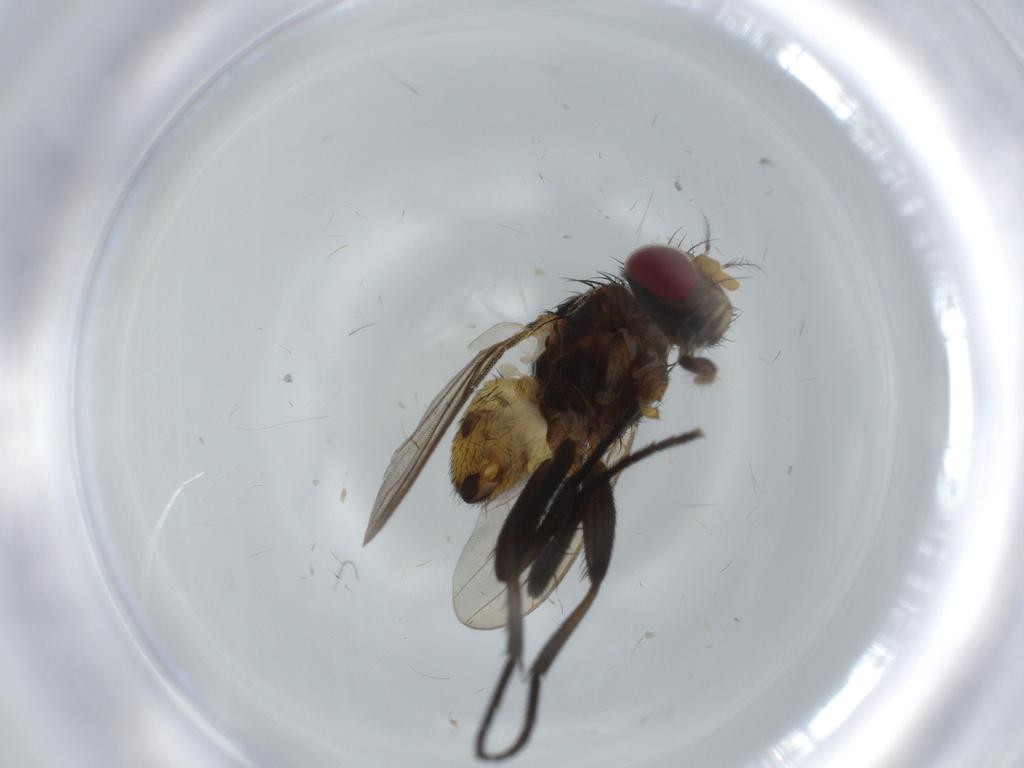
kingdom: Animalia
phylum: Arthropoda
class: Insecta
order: Diptera
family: Anthomyiidae
